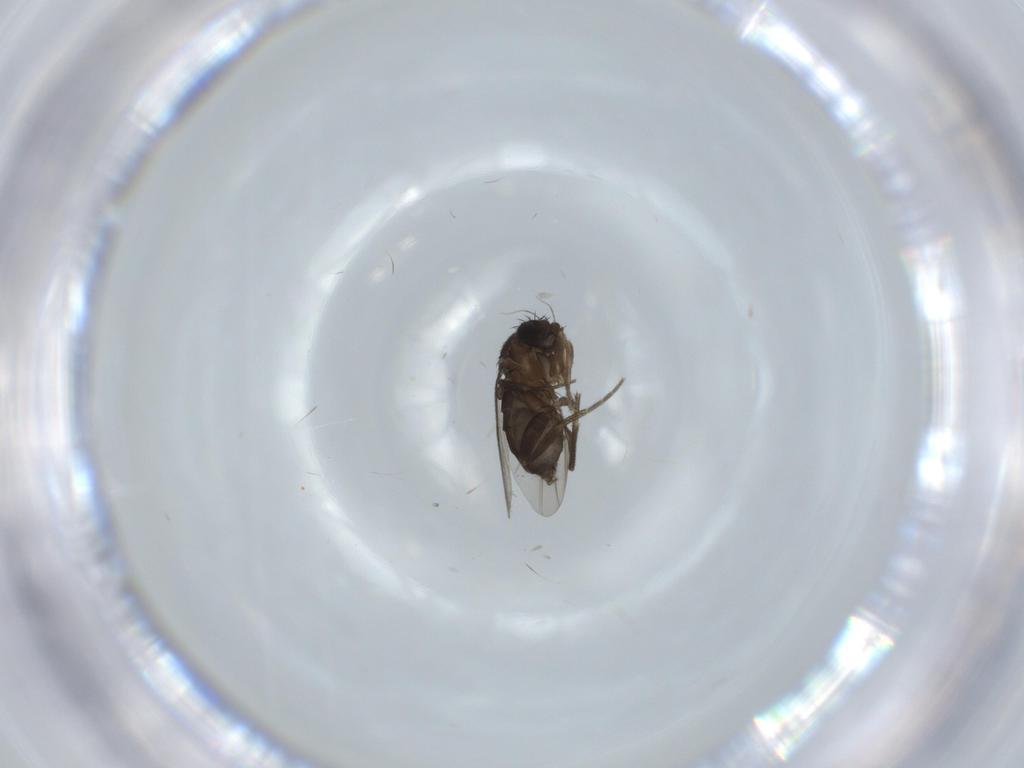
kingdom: Animalia
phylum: Arthropoda
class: Insecta
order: Diptera
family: Phoridae
